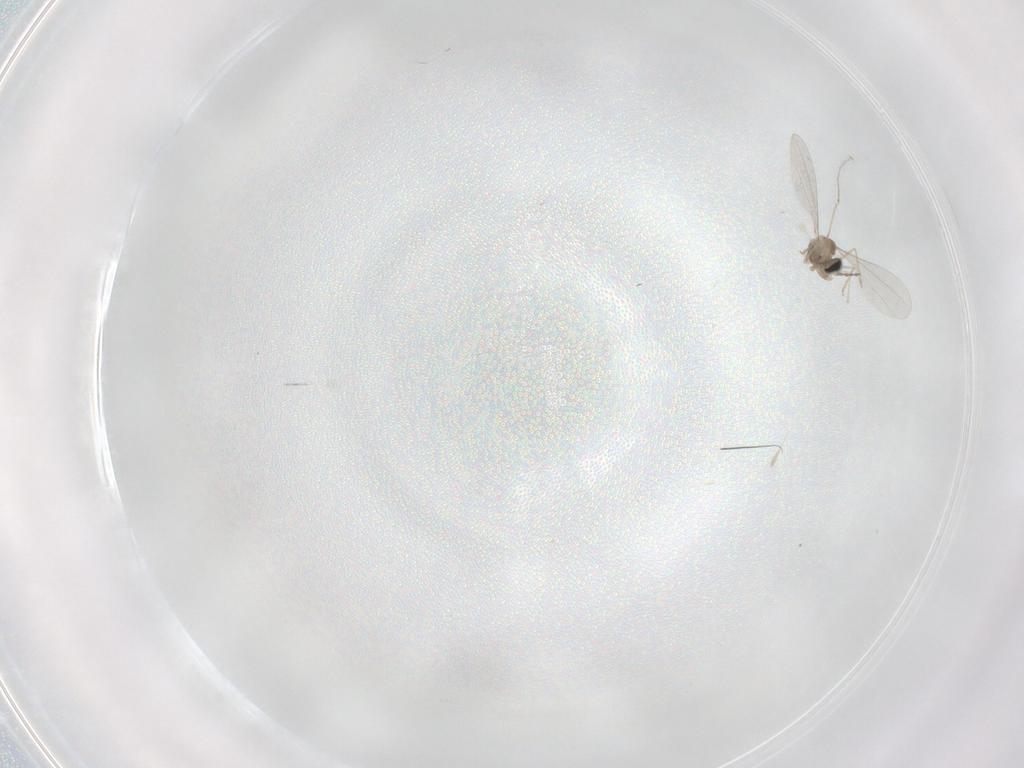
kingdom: Animalia
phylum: Arthropoda
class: Insecta
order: Diptera
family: Cecidomyiidae
